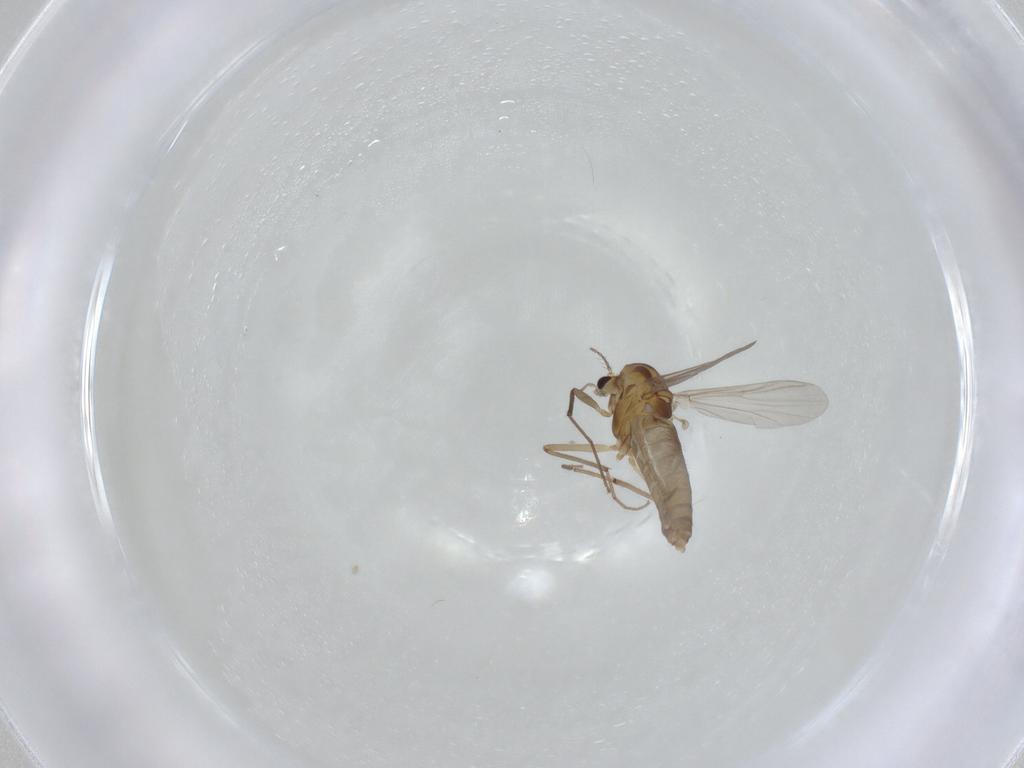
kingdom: Animalia
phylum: Arthropoda
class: Insecta
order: Diptera
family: Chironomidae
